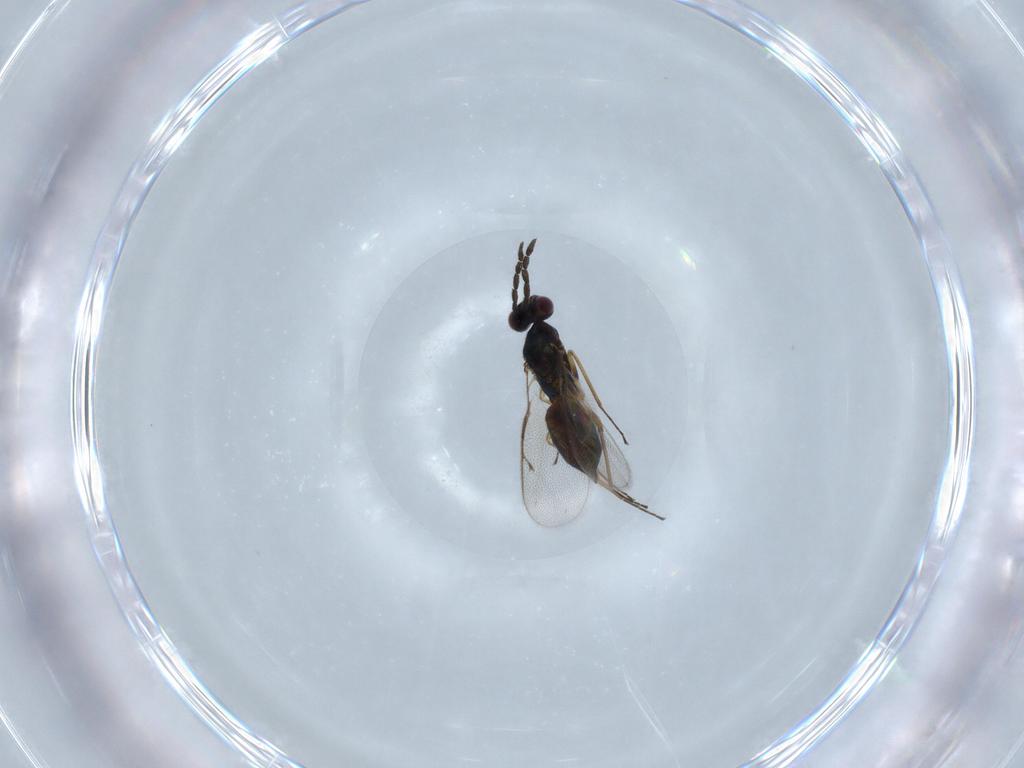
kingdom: Animalia
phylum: Arthropoda
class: Insecta
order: Hymenoptera
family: Eulophidae
